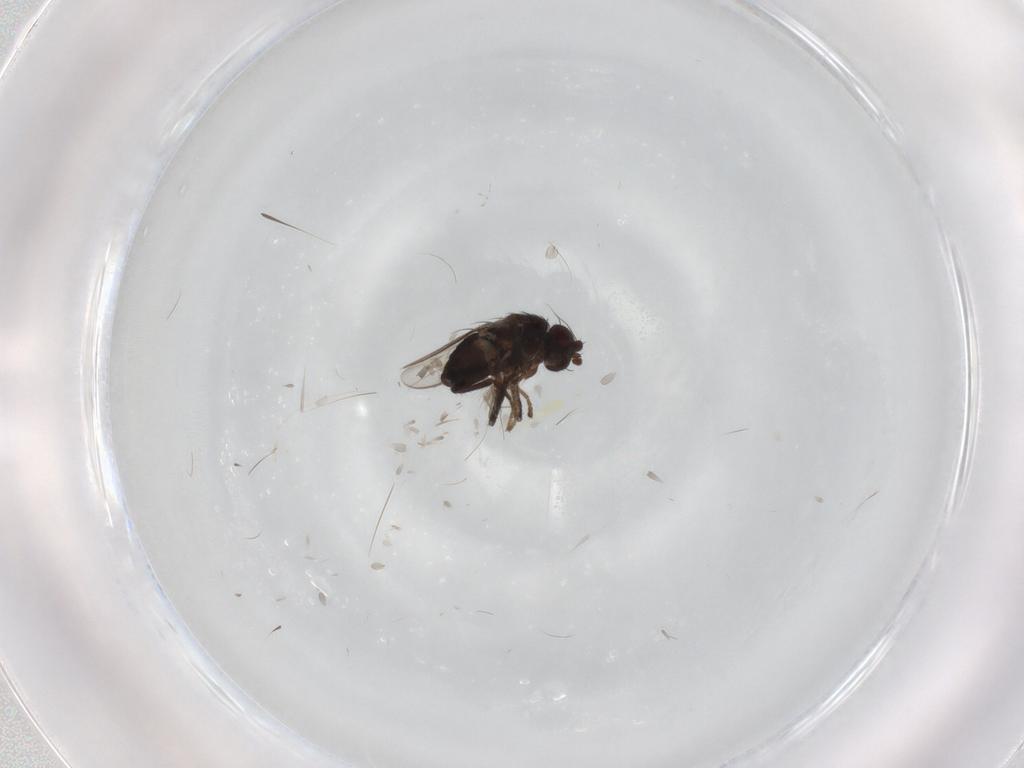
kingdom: Animalia
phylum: Arthropoda
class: Insecta
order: Diptera
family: Sphaeroceridae
